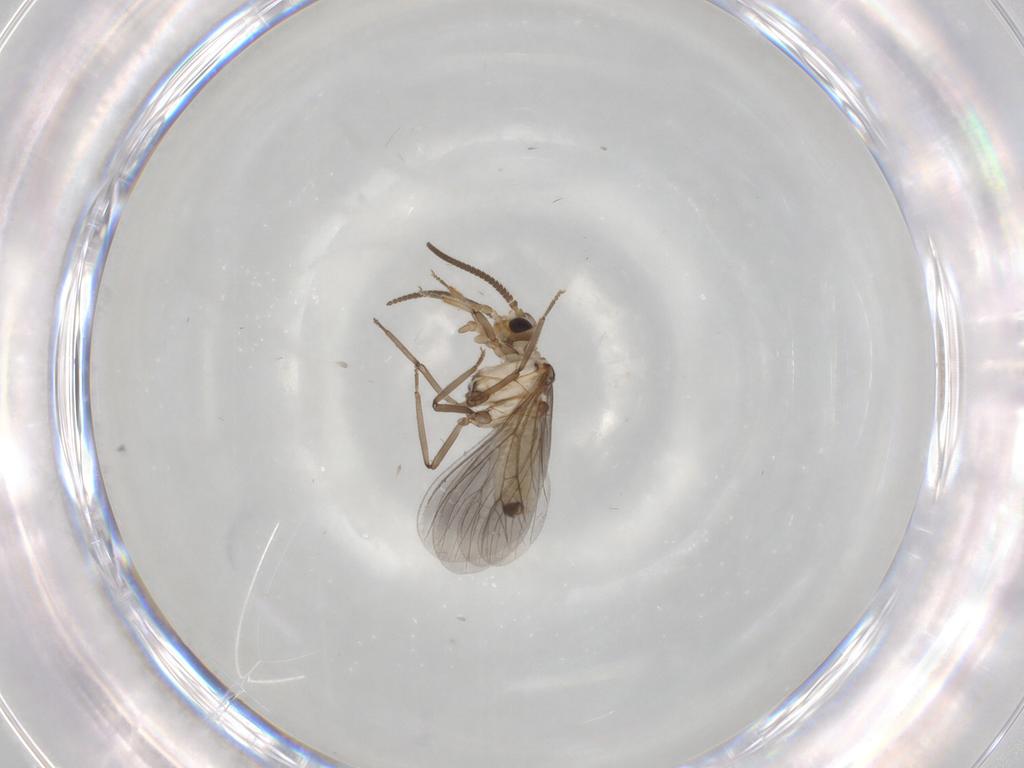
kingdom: Animalia
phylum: Arthropoda
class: Insecta
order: Neuroptera
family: Coniopterygidae
